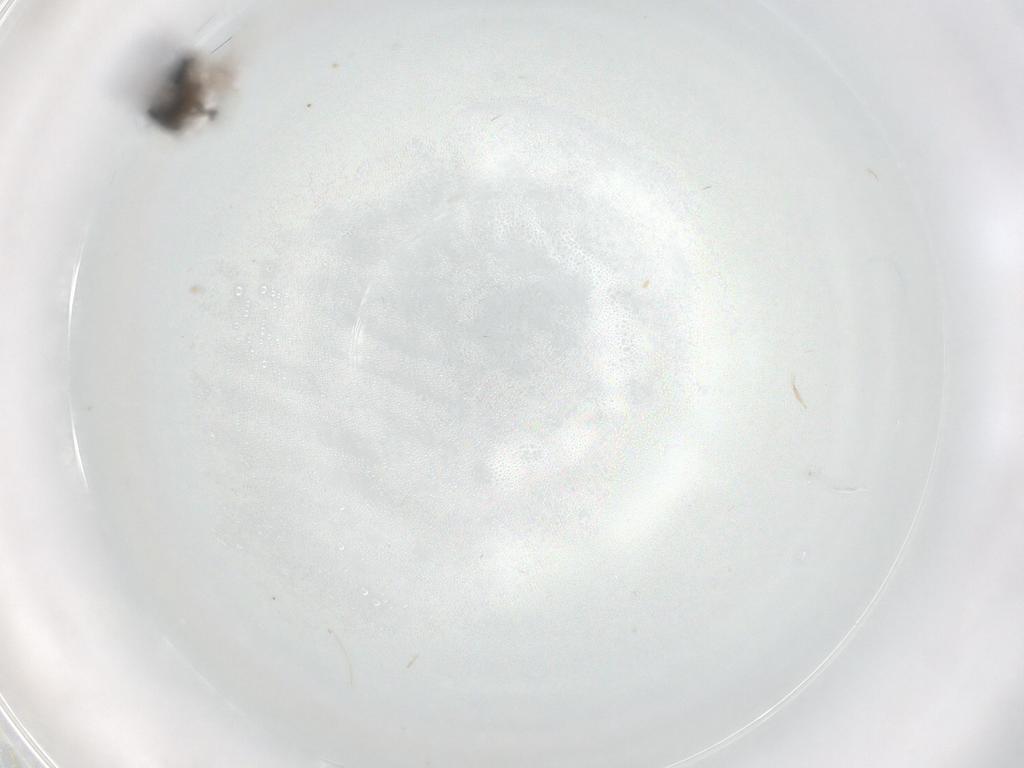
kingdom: Animalia
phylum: Arthropoda
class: Insecta
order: Hymenoptera
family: Scelionidae
